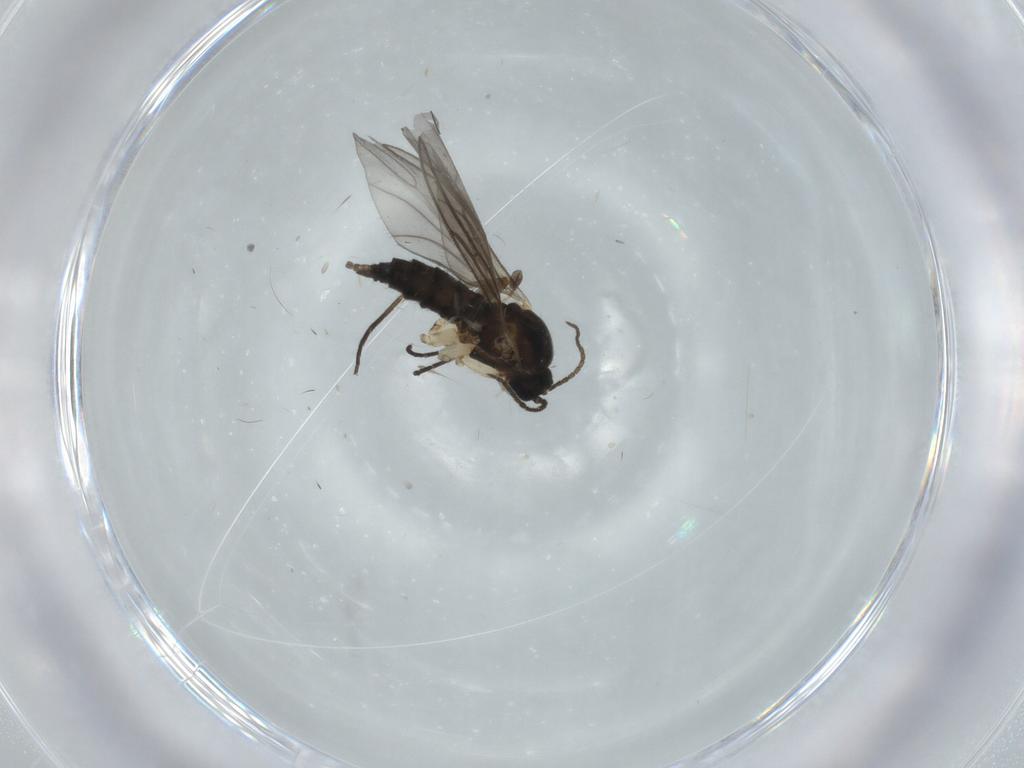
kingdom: Animalia
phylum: Arthropoda
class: Insecta
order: Diptera
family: Sciaridae
